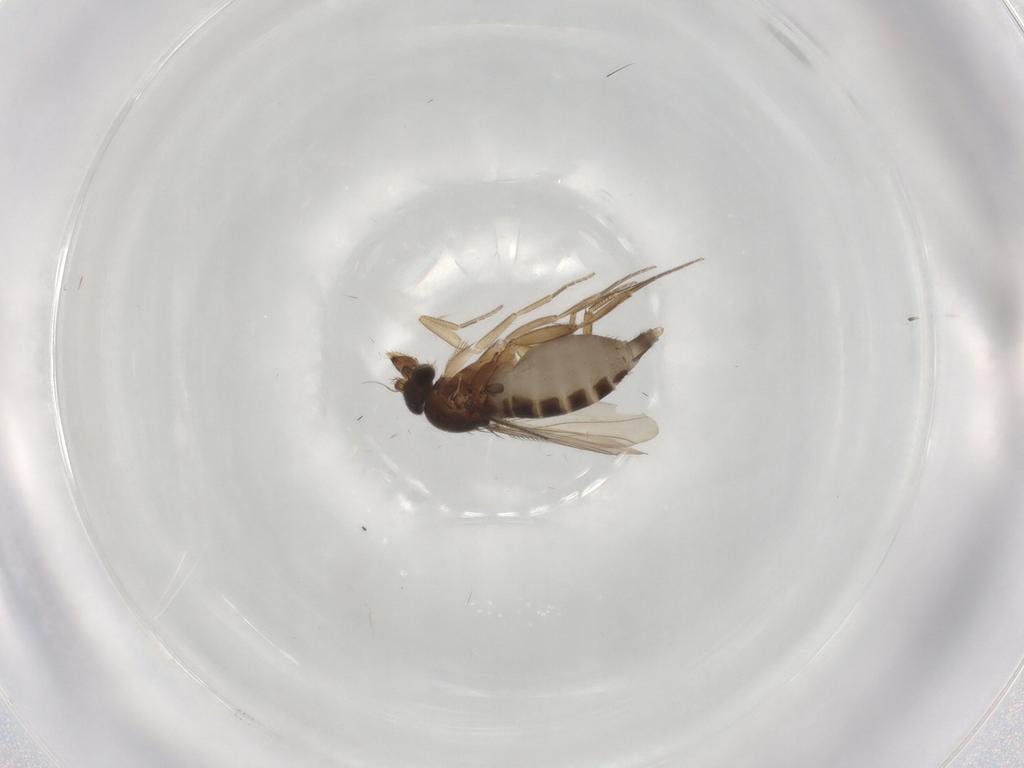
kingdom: Animalia
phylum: Arthropoda
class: Insecta
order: Diptera
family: Phoridae
